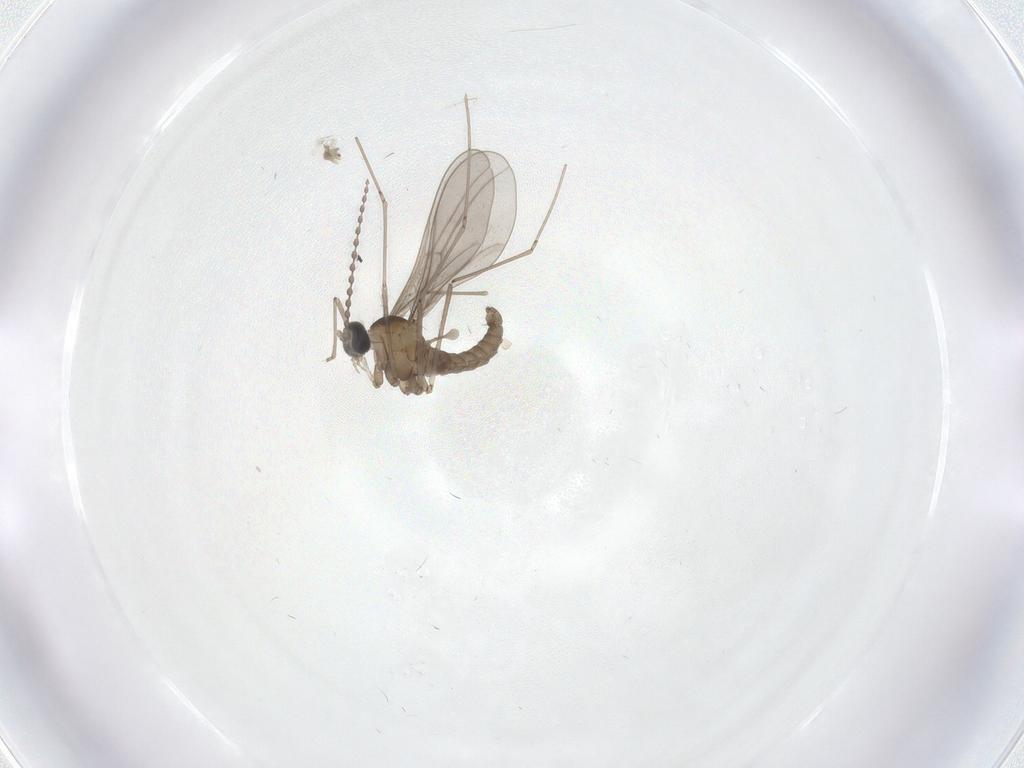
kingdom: Animalia
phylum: Arthropoda
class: Insecta
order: Diptera
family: Cecidomyiidae
